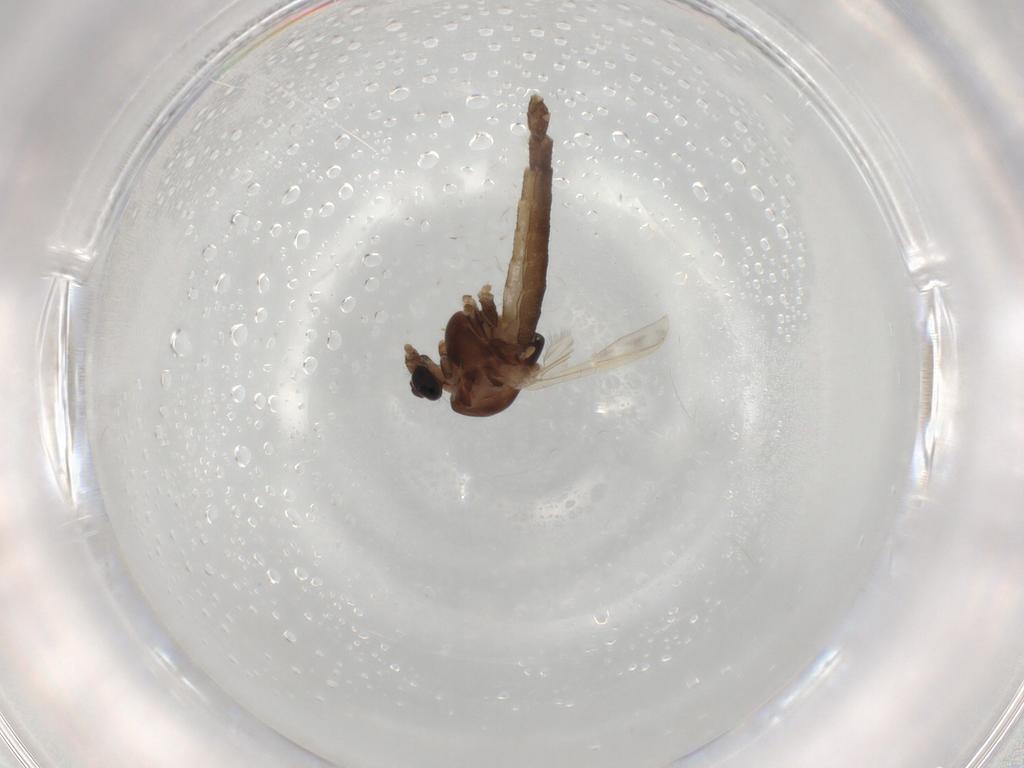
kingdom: Animalia
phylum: Arthropoda
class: Insecta
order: Diptera
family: Chironomidae
